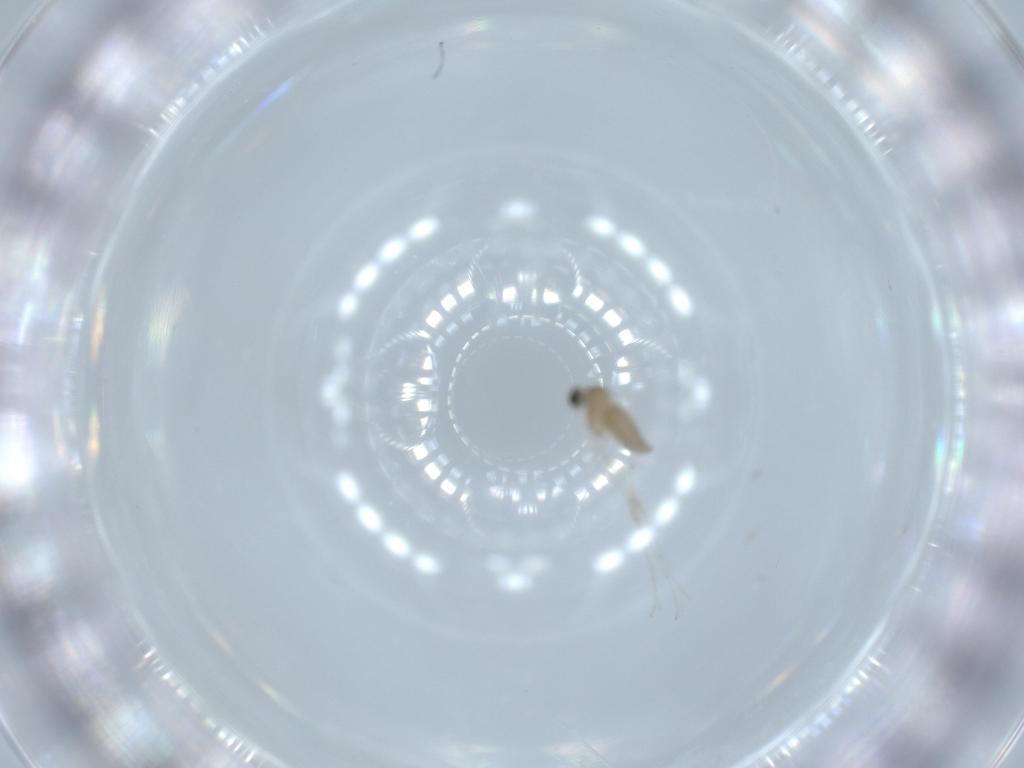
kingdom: Animalia
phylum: Arthropoda
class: Insecta
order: Diptera
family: Cecidomyiidae
